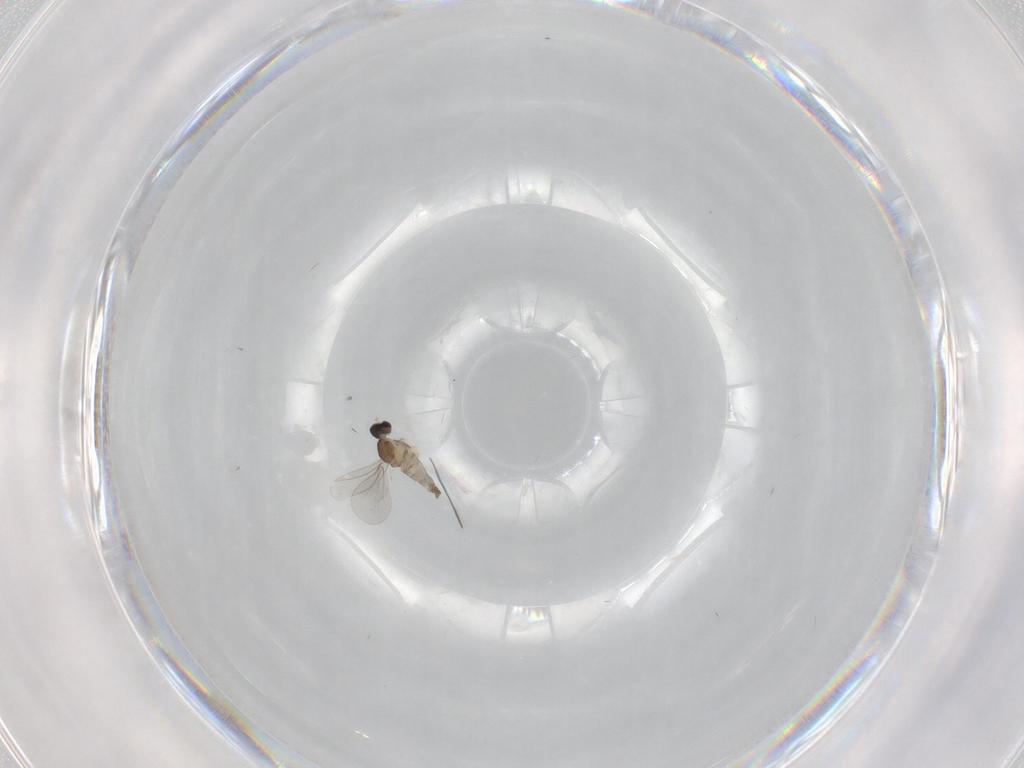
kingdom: Animalia
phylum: Arthropoda
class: Insecta
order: Diptera
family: Cecidomyiidae
